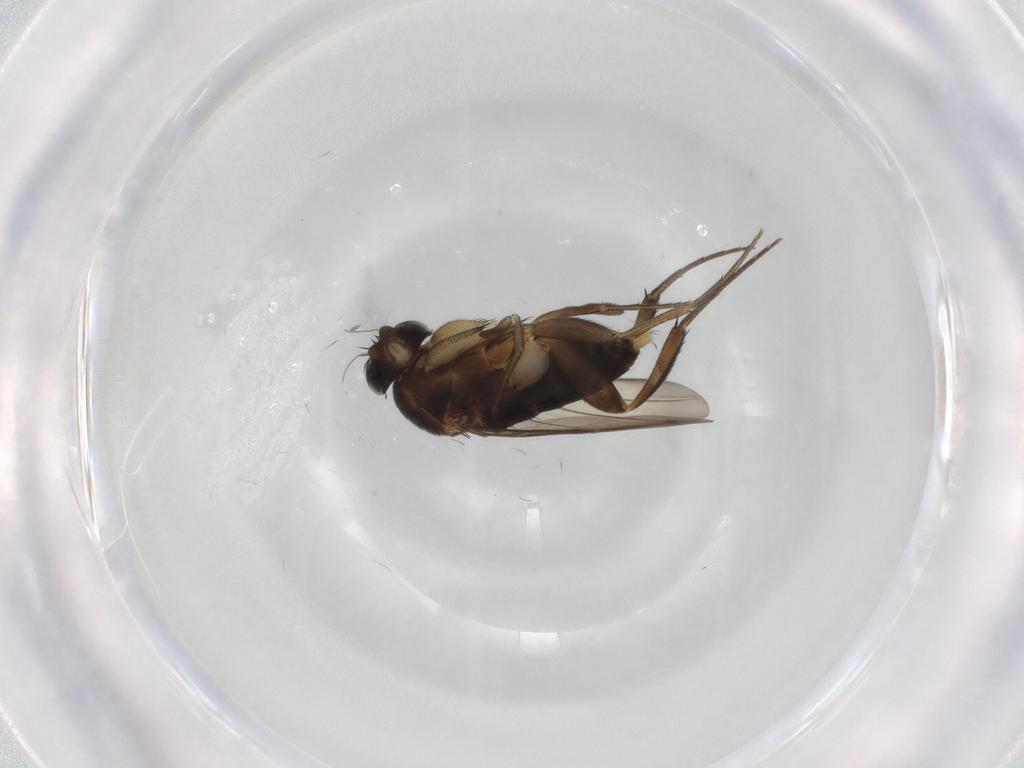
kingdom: Animalia
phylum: Arthropoda
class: Insecta
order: Diptera
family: Phoridae
